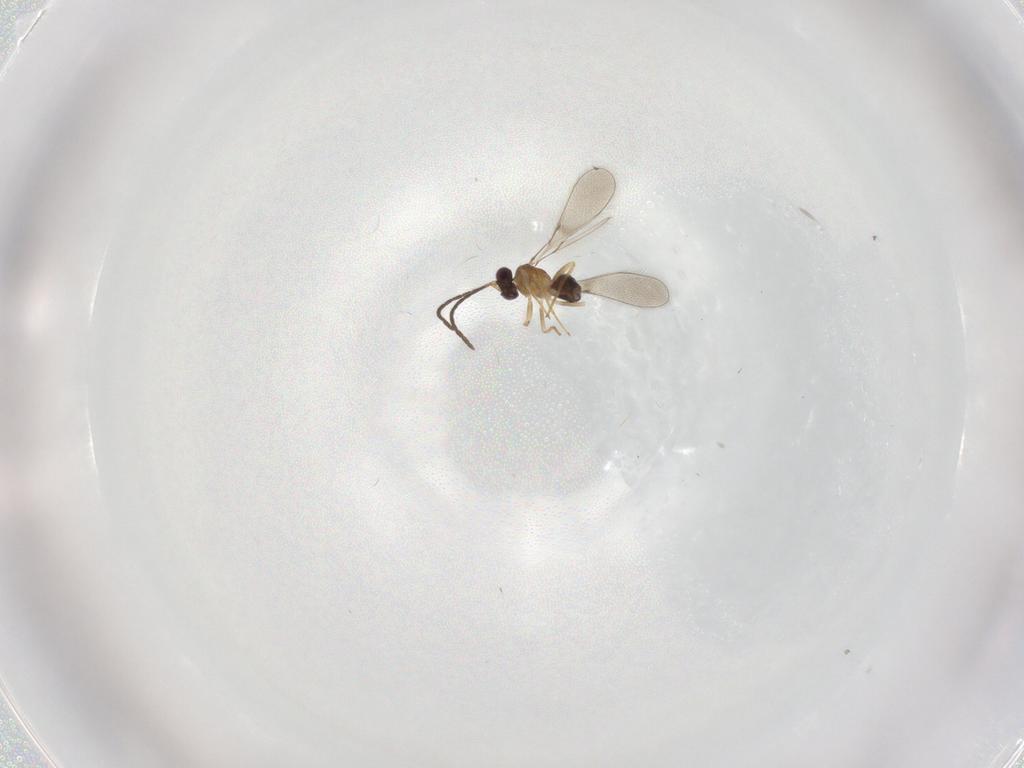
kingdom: Animalia
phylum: Arthropoda
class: Insecta
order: Hymenoptera
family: Mymaridae
